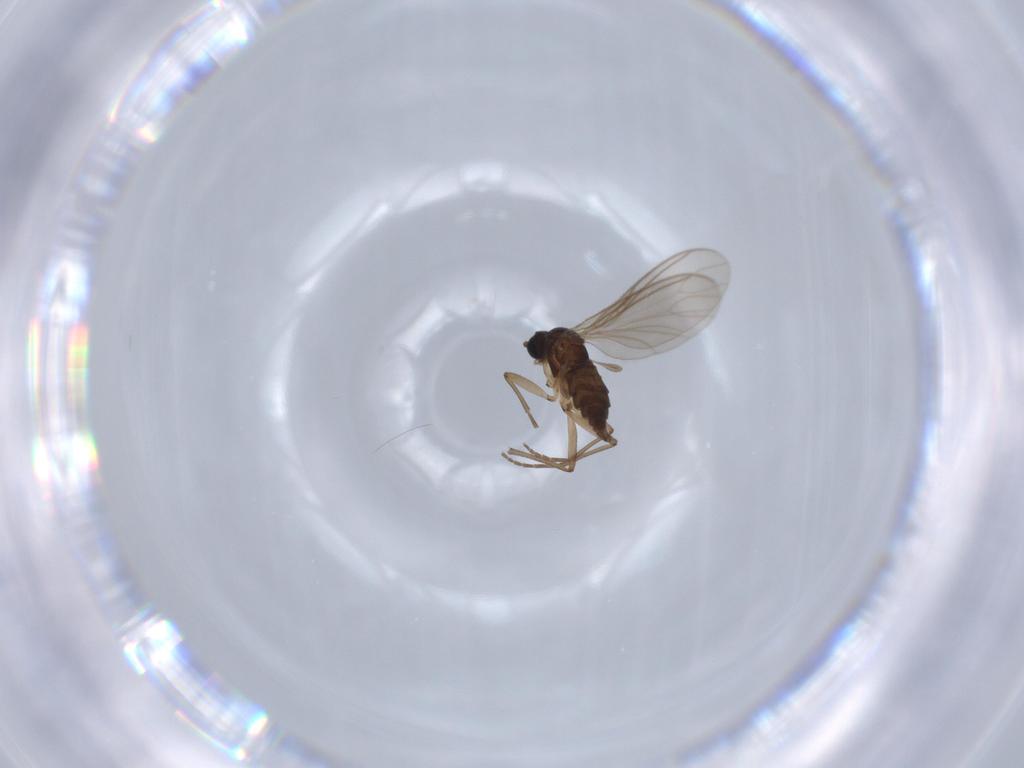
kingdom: Animalia
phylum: Arthropoda
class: Insecta
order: Diptera
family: Sciaridae
